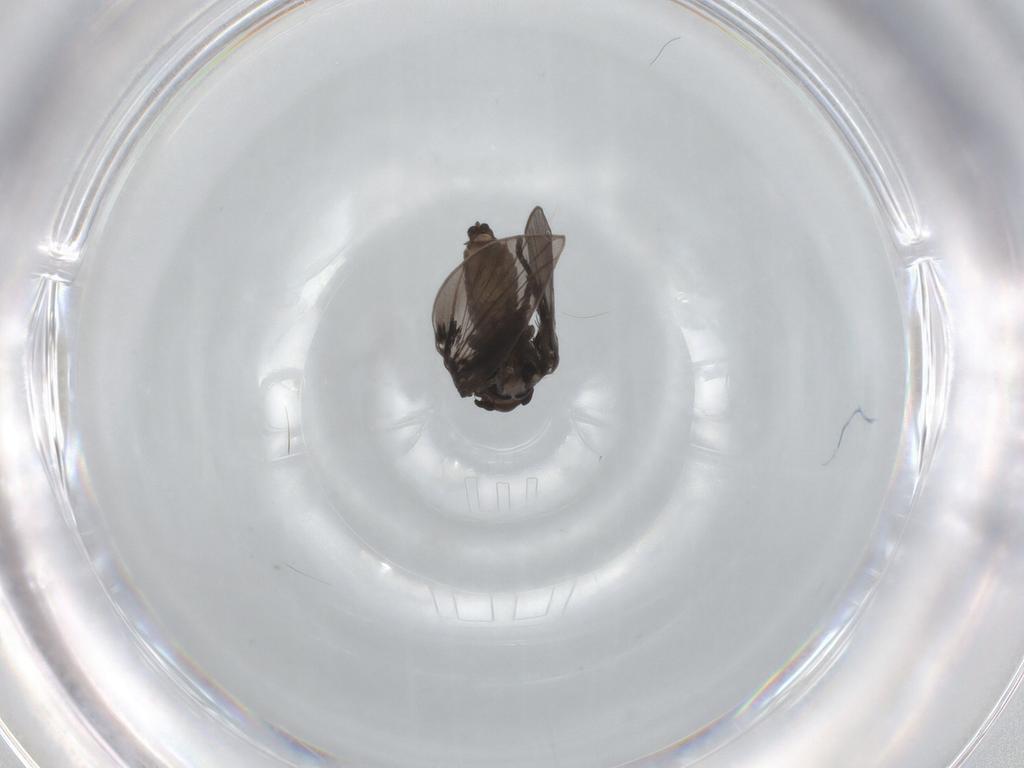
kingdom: Animalia
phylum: Arthropoda
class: Insecta
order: Diptera
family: Psychodidae
